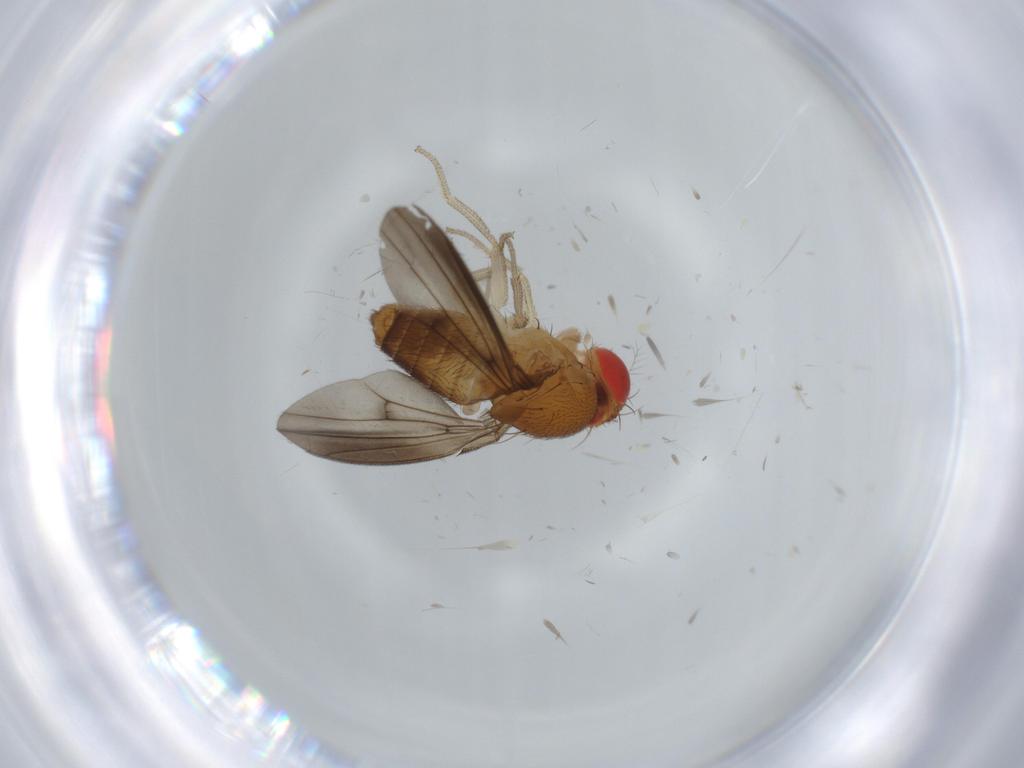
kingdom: Animalia
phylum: Arthropoda
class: Insecta
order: Diptera
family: Drosophilidae
